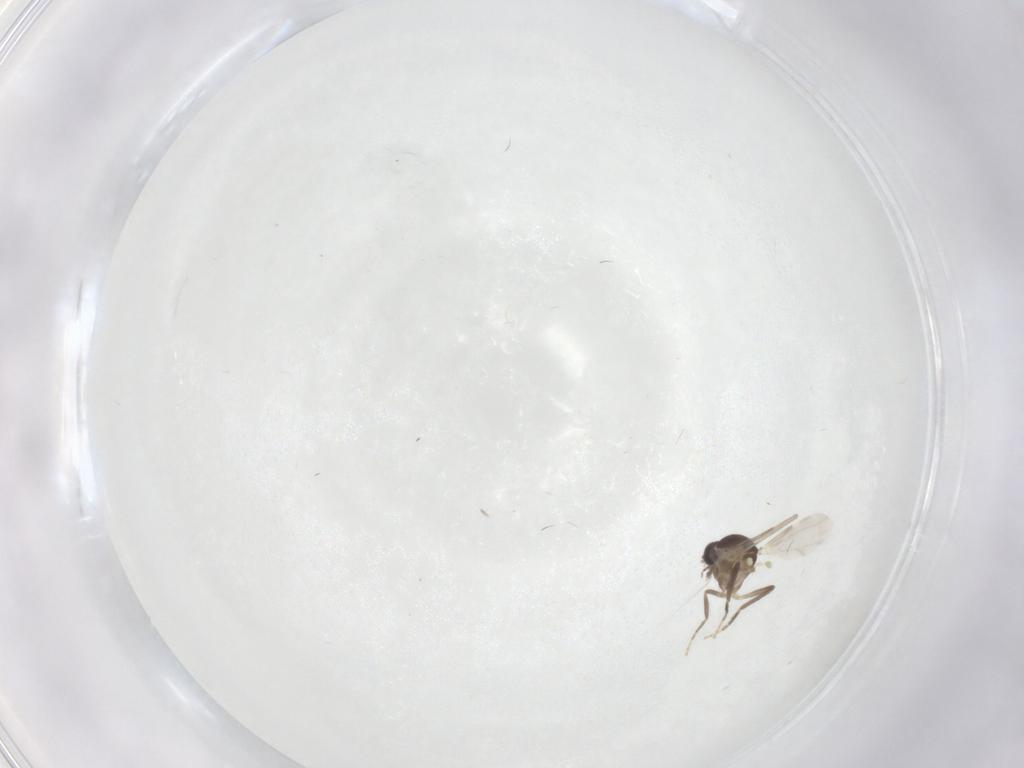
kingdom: Animalia
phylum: Arthropoda
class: Insecta
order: Diptera
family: Ceratopogonidae
